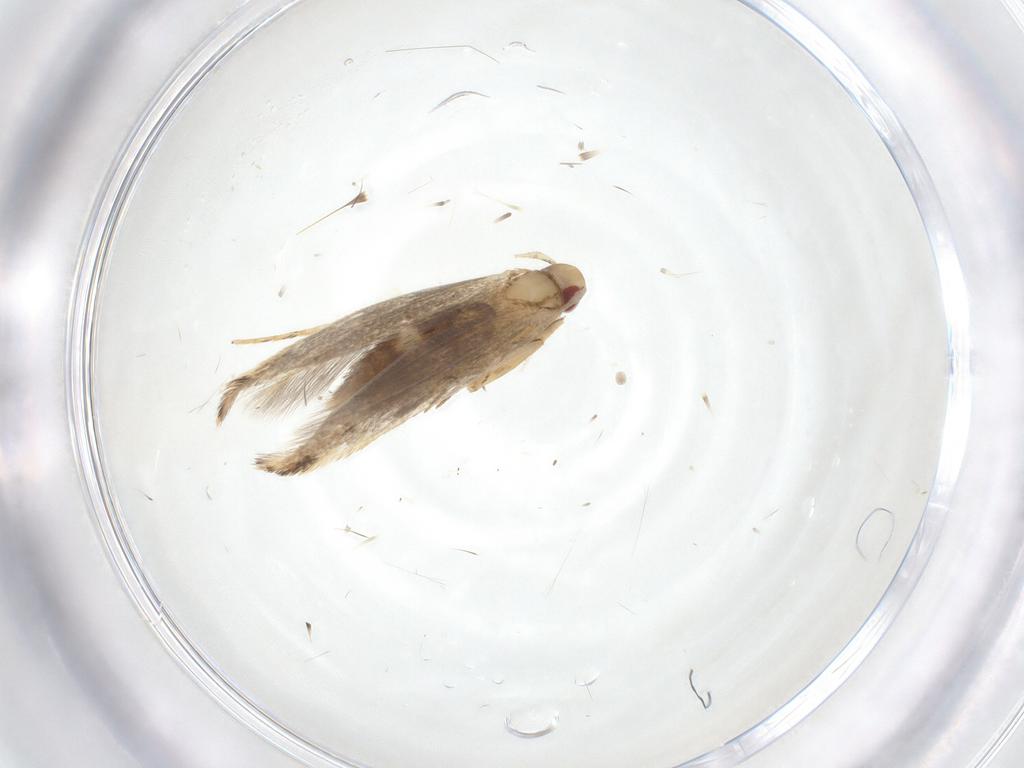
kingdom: Animalia
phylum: Arthropoda
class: Insecta
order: Lepidoptera
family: Cosmopterigidae
